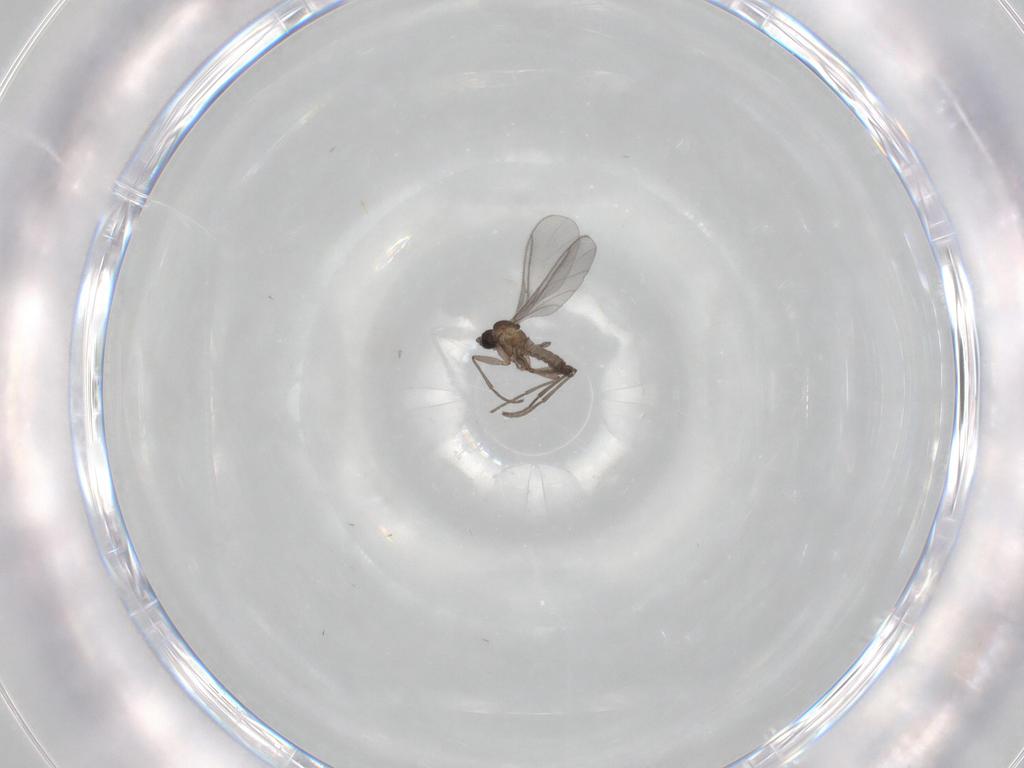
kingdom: Animalia
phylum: Arthropoda
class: Insecta
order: Diptera
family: Sciaridae
